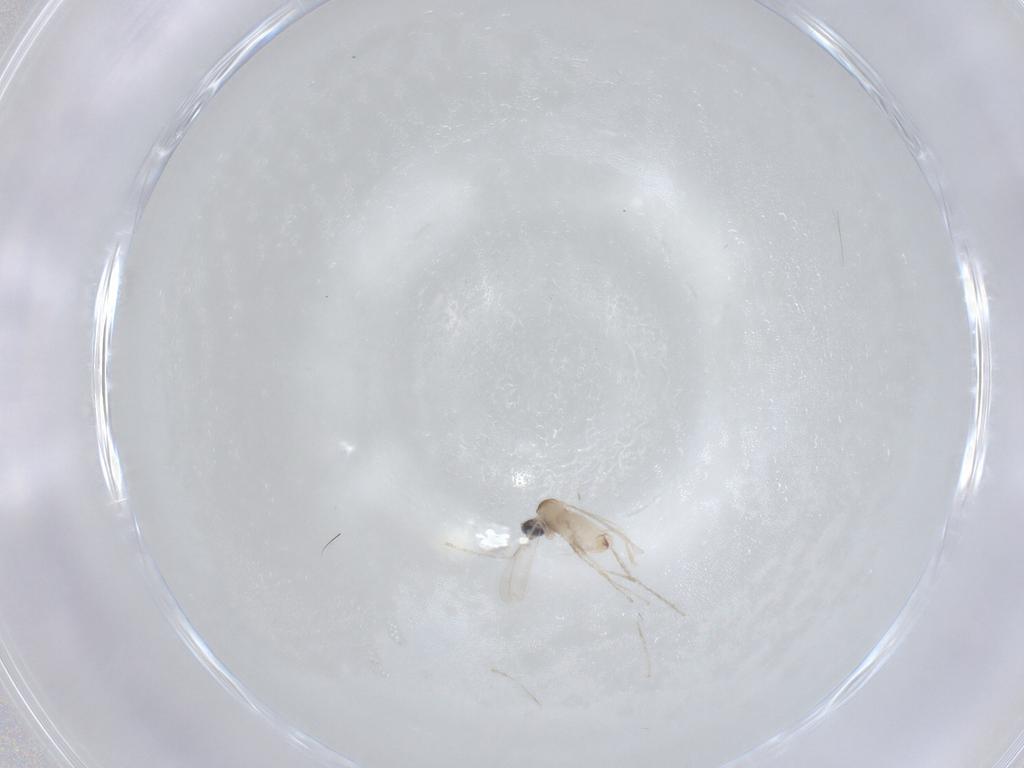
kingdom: Animalia
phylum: Arthropoda
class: Insecta
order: Diptera
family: Cecidomyiidae
